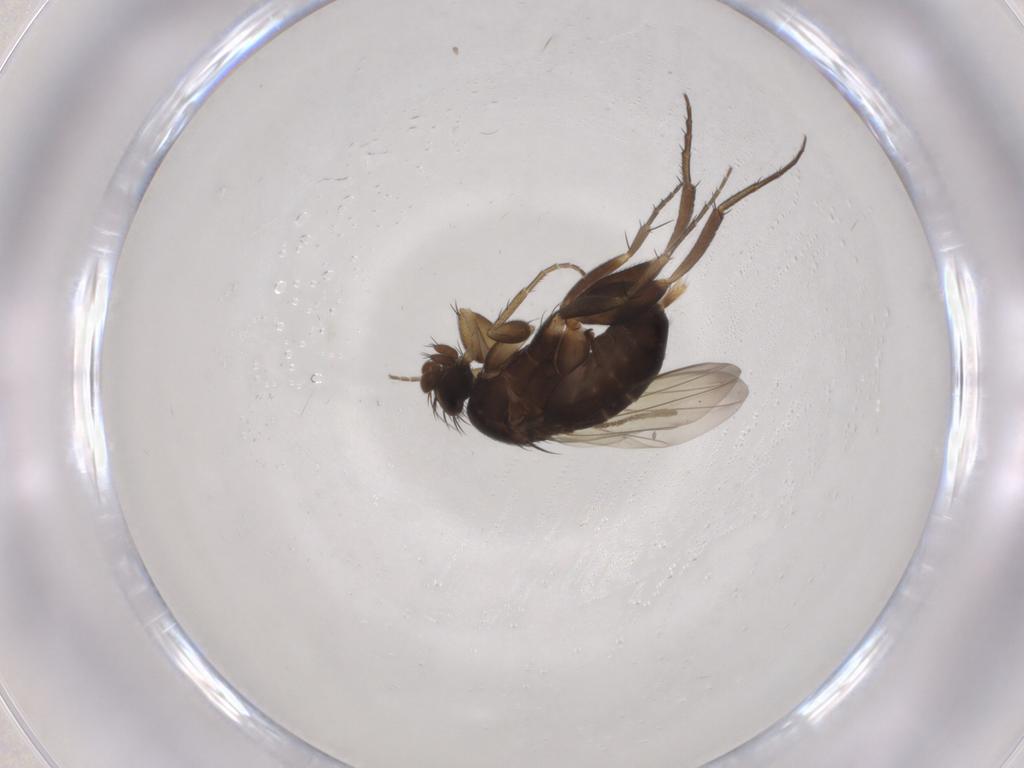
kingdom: Animalia
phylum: Arthropoda
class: Insecta
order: Diptera
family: Phoridae
